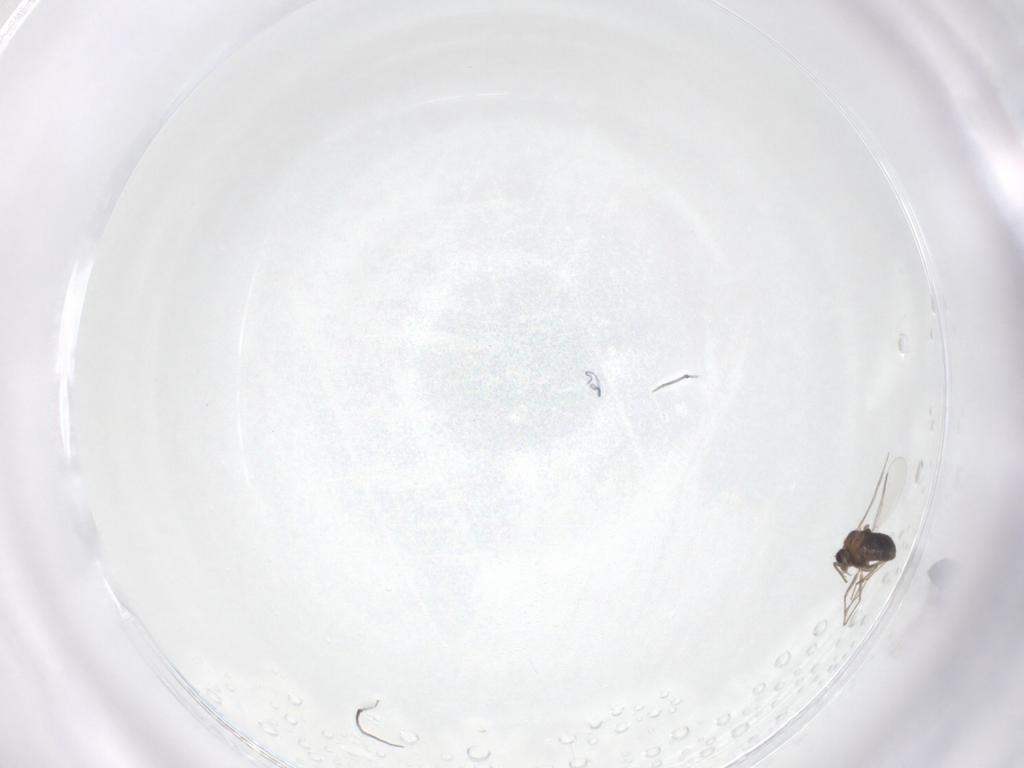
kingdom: Animalia
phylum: Arthropoda
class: Insecta
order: Diptera
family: Chironomidae
